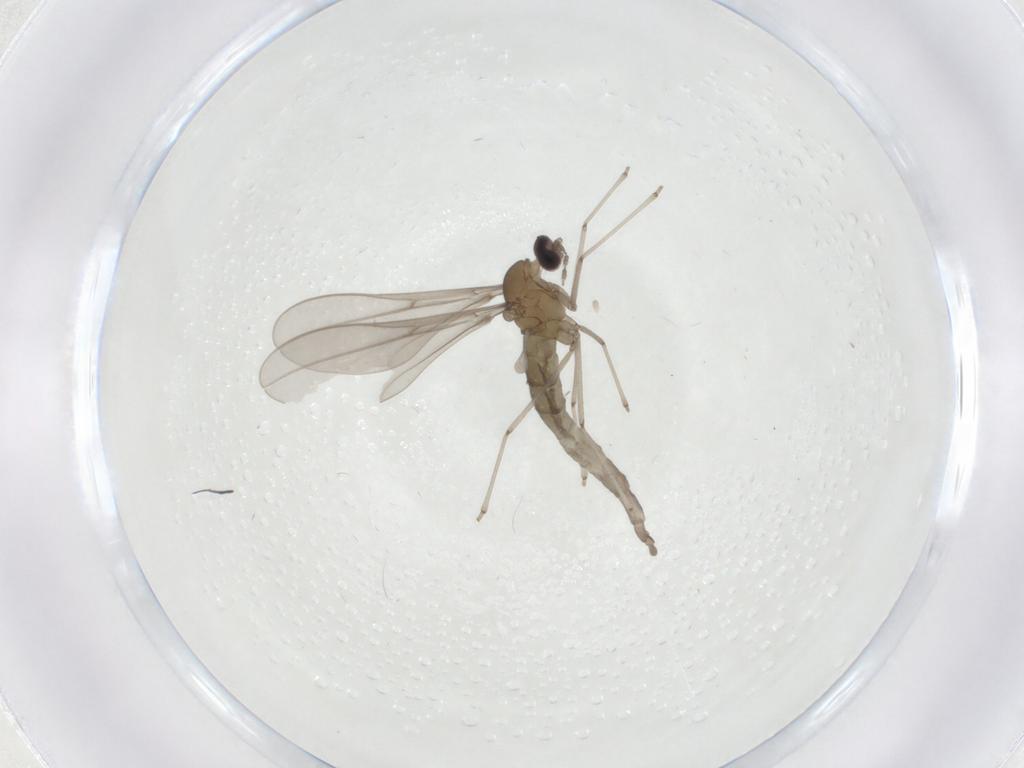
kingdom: Animalia
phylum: Arthropoda
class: Insecta
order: Diptera
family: Cecidomyiidae
